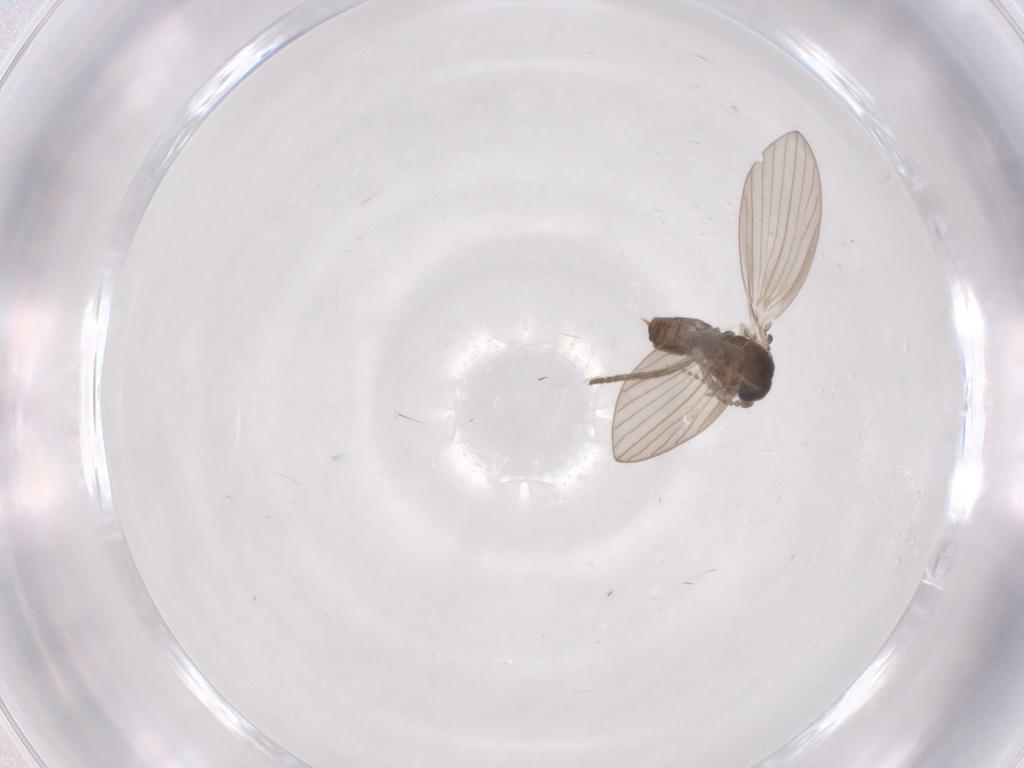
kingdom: Animalia
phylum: Arthropoda
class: Insecta
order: Diptera
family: Psychodidae
